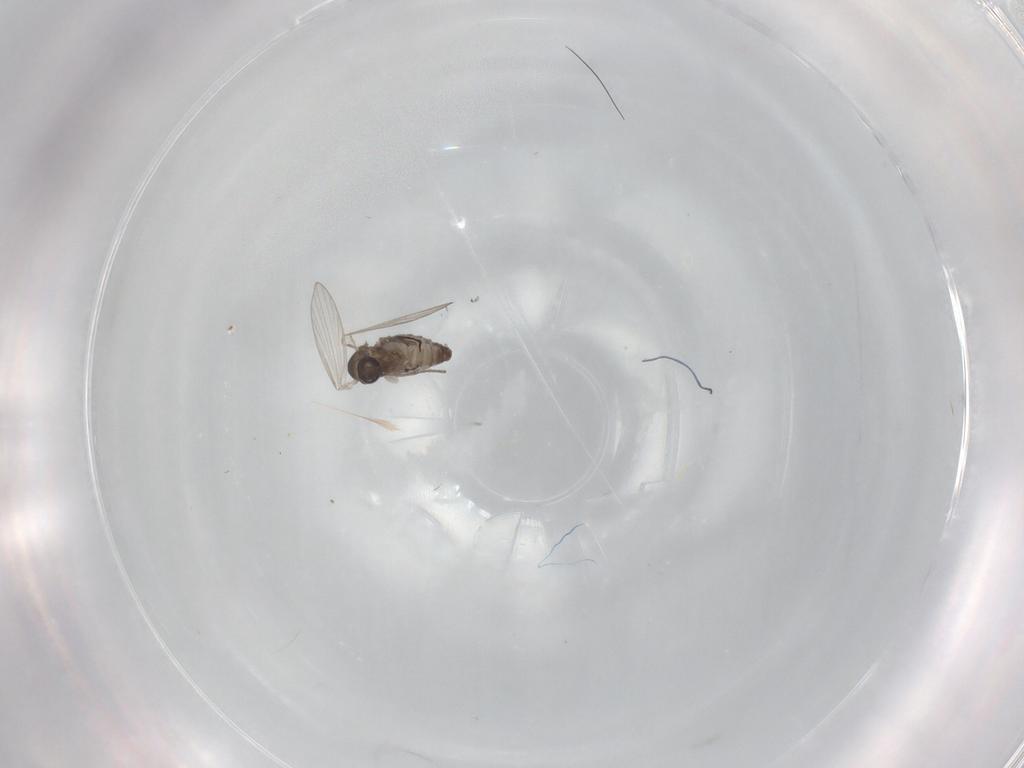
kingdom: Animalia
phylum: Arthropoda
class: Insecta
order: Diptera
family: Psychodidae
